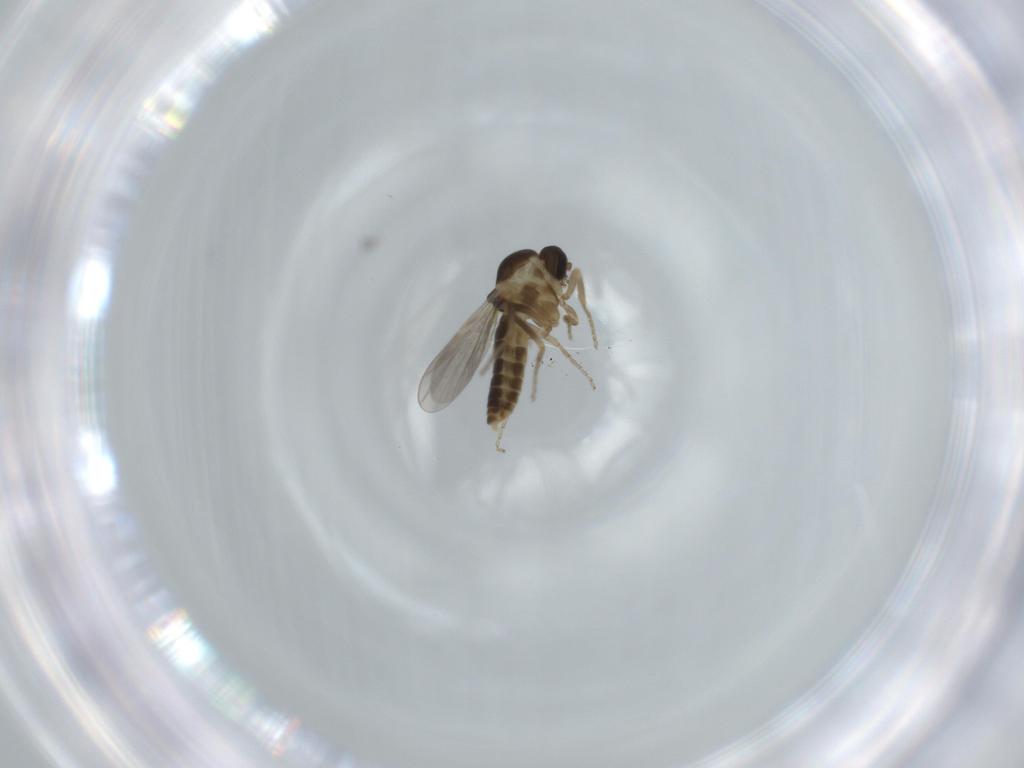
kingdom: Animalia
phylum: Arthropoda
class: Insecta
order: Diptera
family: Ceratopogonidae
